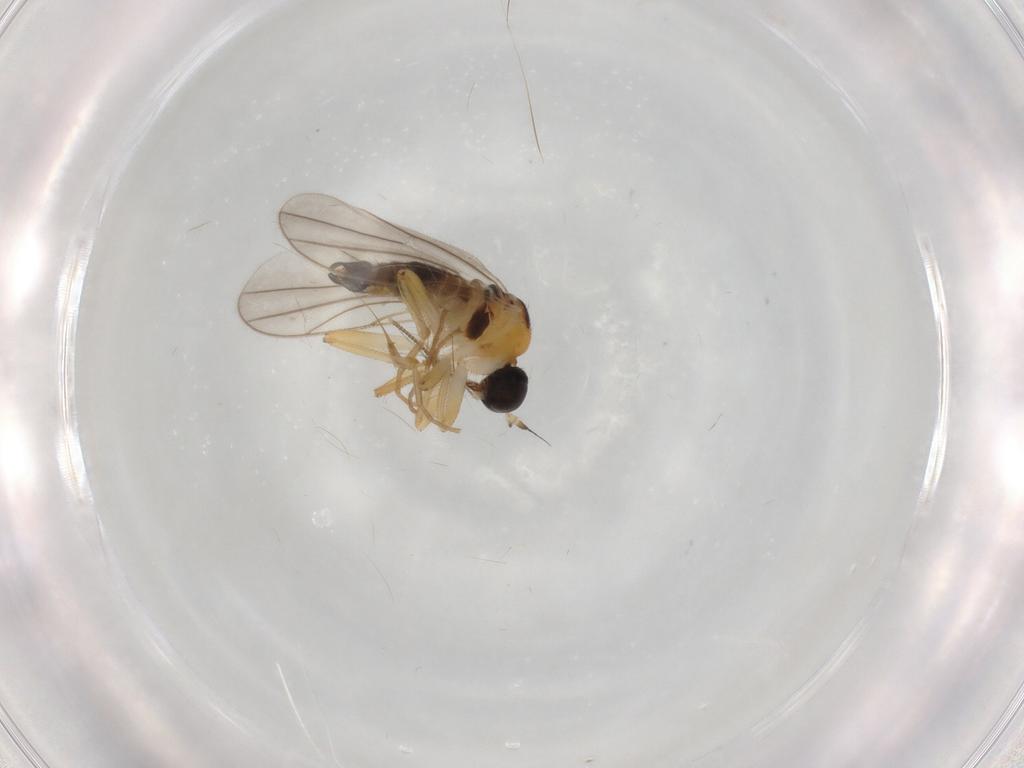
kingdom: Animalia
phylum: Arthropoda
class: Insecta
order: Diptera
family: Hybotidae
